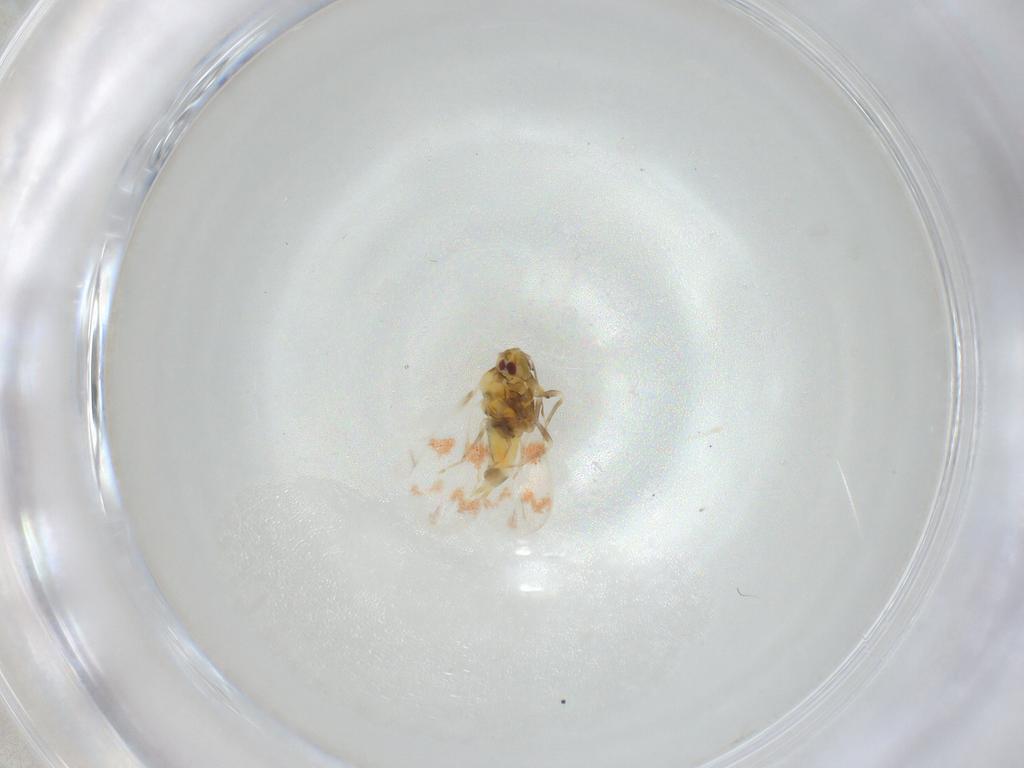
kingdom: Animalia
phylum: Arthropoda
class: Insecta
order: Hemiptera
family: Aleyrodidae
